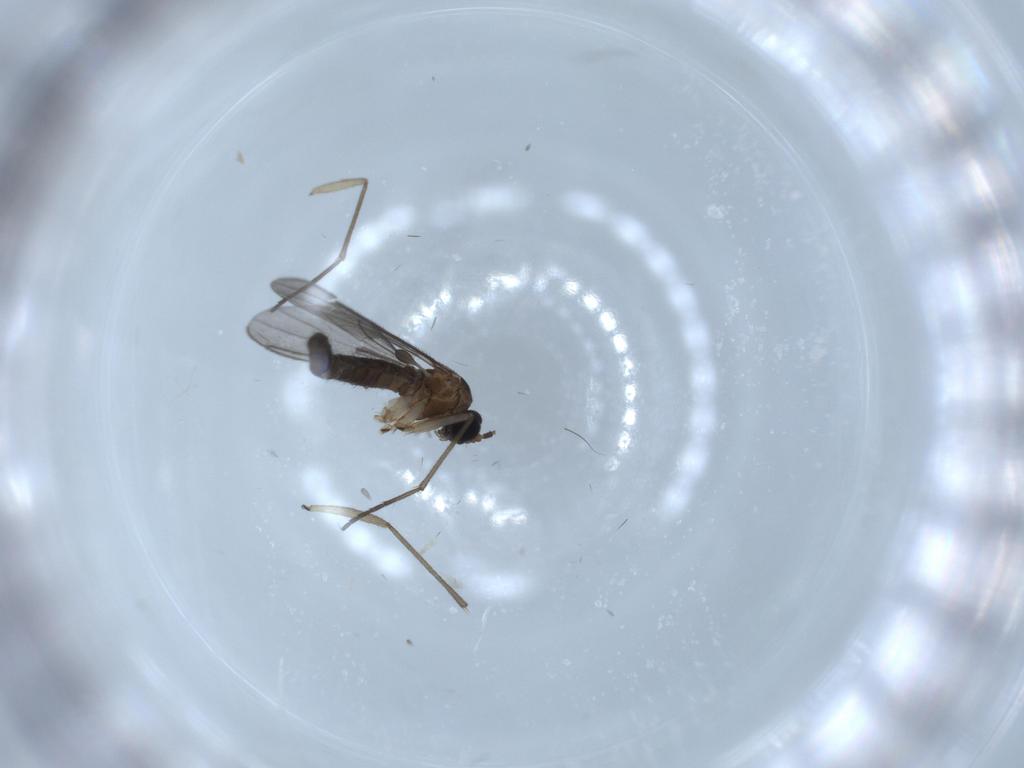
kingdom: Animalia
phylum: Arthropoda
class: Insecta
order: Diptera
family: Sciaridae
